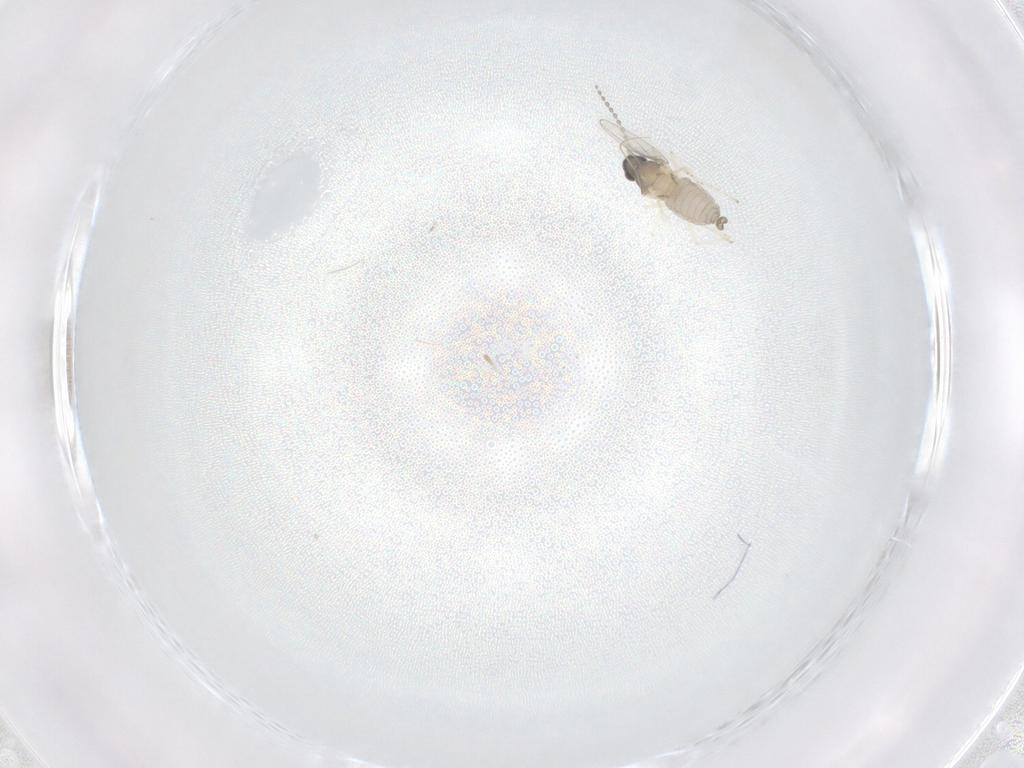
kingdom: Animalia
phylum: Arthropoda
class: Insecta
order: Diptera
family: Cecidomyiidae
